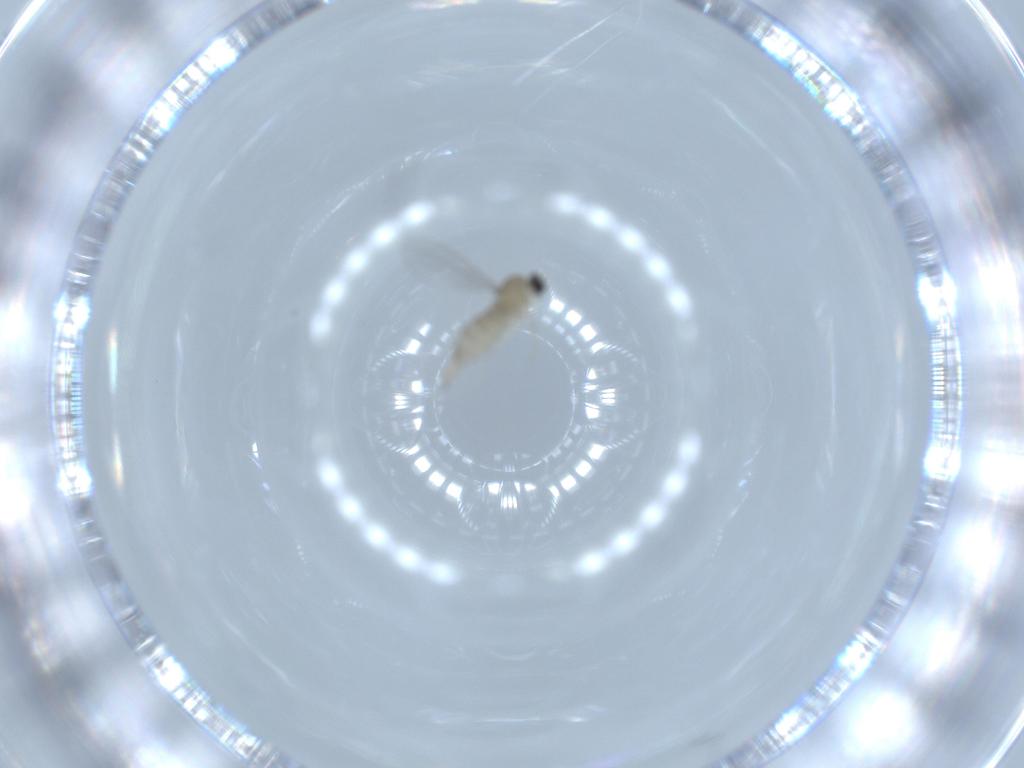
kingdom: Animalia
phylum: Arthropoda
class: Insecta
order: Diptera
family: Cecidomyiidae
